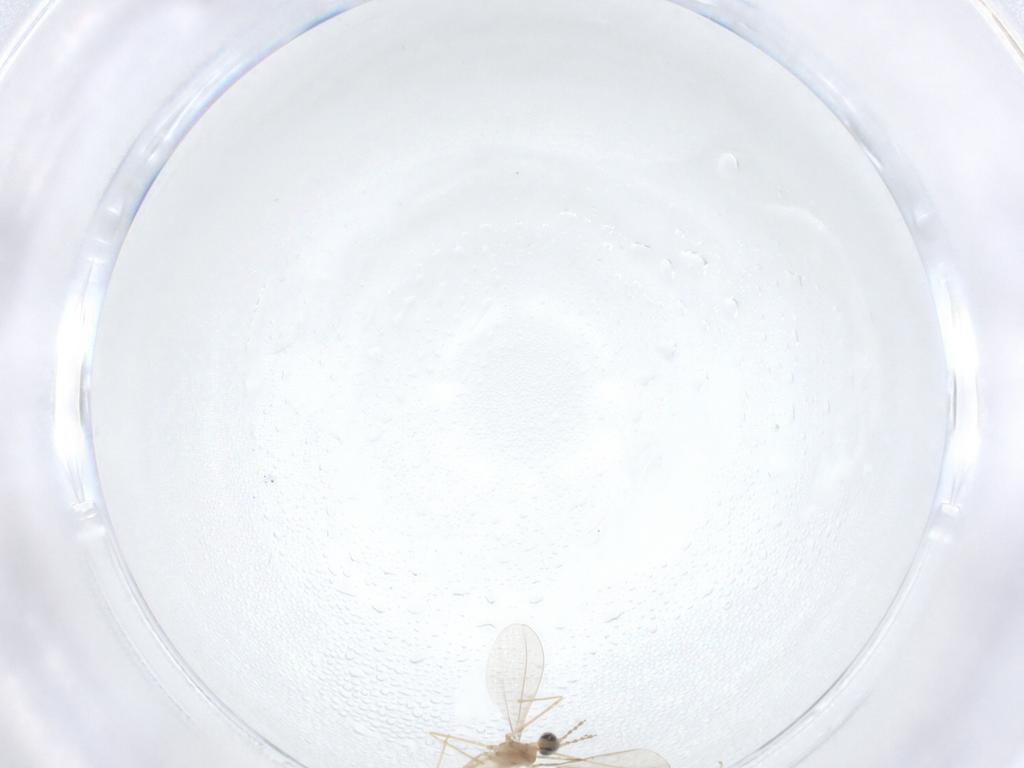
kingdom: Animalia
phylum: Arthropoda
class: Insecta
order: Diptera
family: Cecidomyiidae
